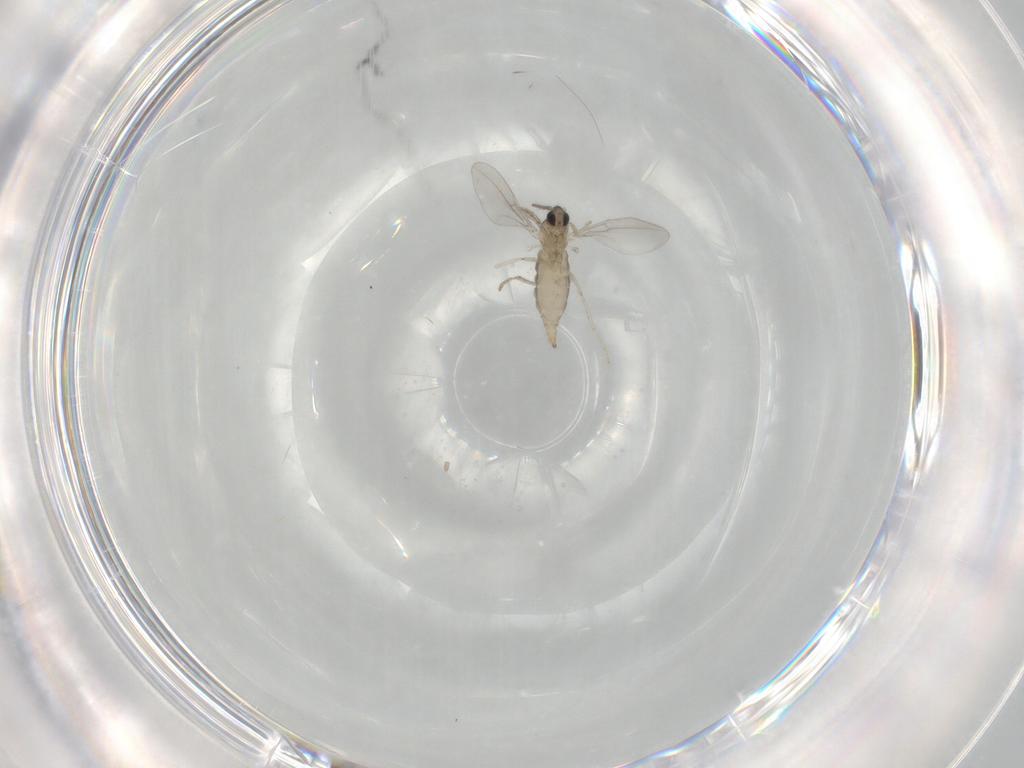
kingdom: Animalia
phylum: Arthropoda
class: Insecta
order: Diptera
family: Cecidomyiidae
